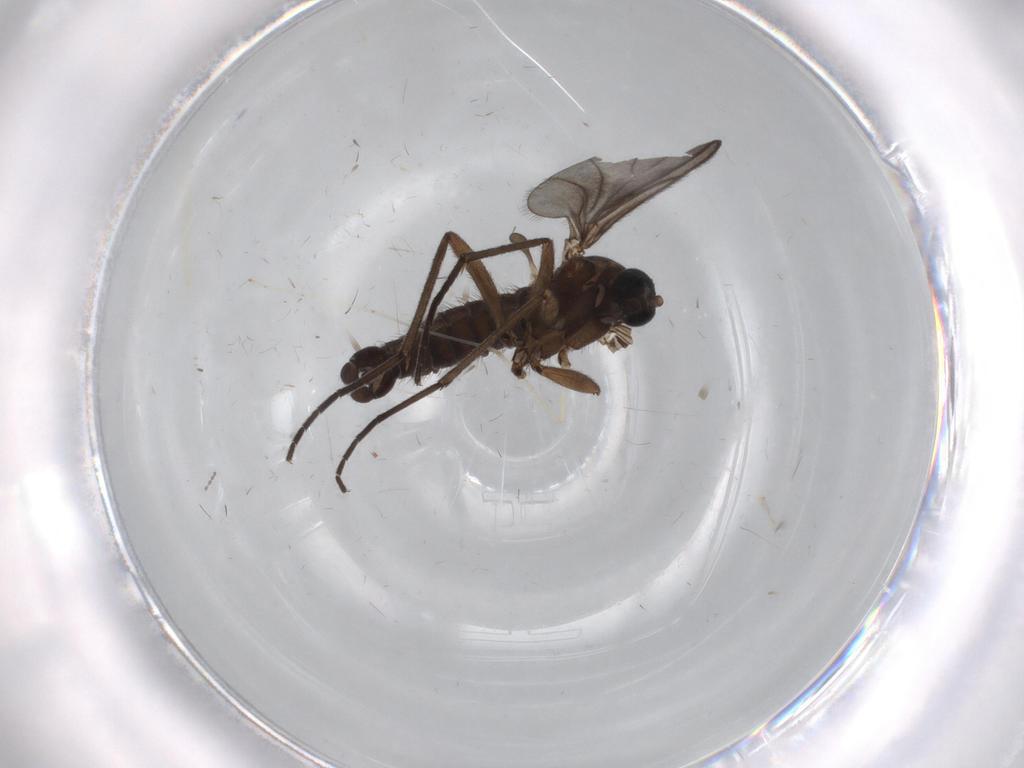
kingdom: Animalia
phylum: Arthropoda
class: Insecta
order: Diptera
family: Sciaridae
